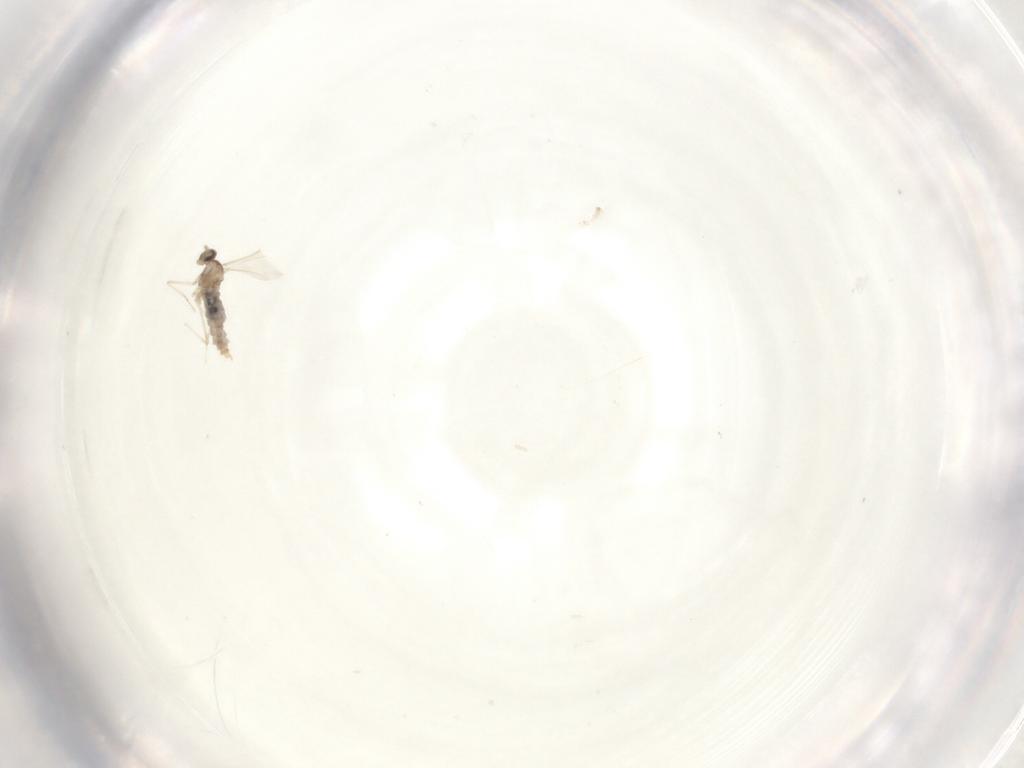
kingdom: Animalia
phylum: Arthropoda
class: Insecta
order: Diptera
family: Cecidomyiidae
